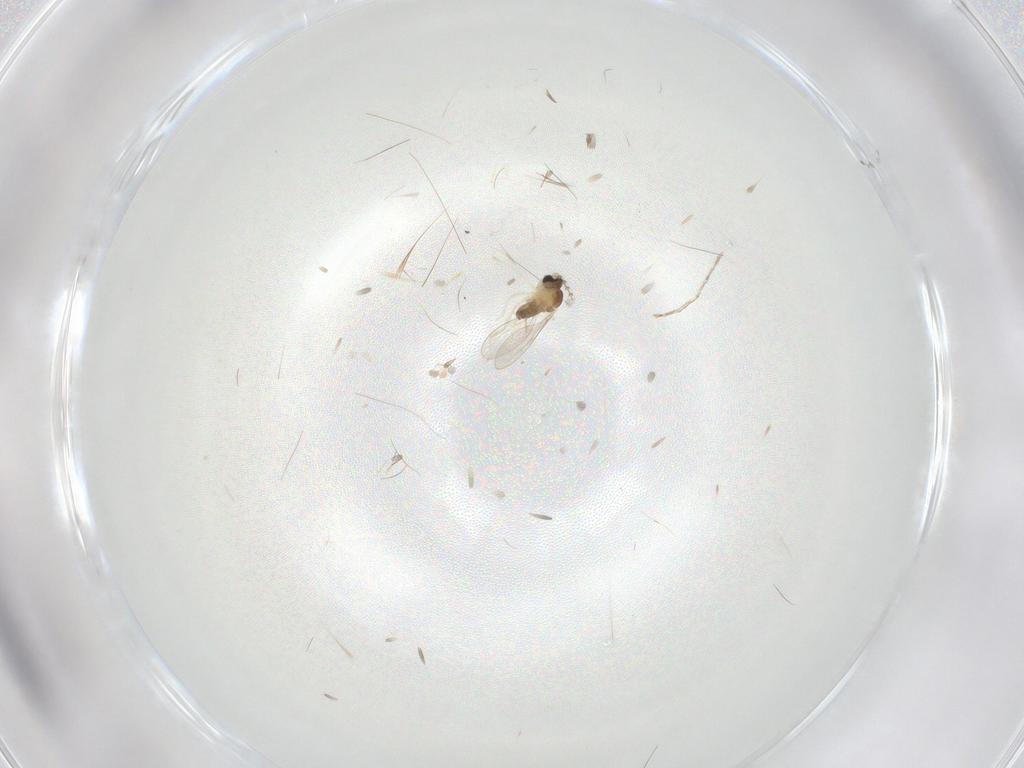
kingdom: Animalia
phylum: Arthropoda
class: Insecta
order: Diptera
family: Cecidomyiidae
